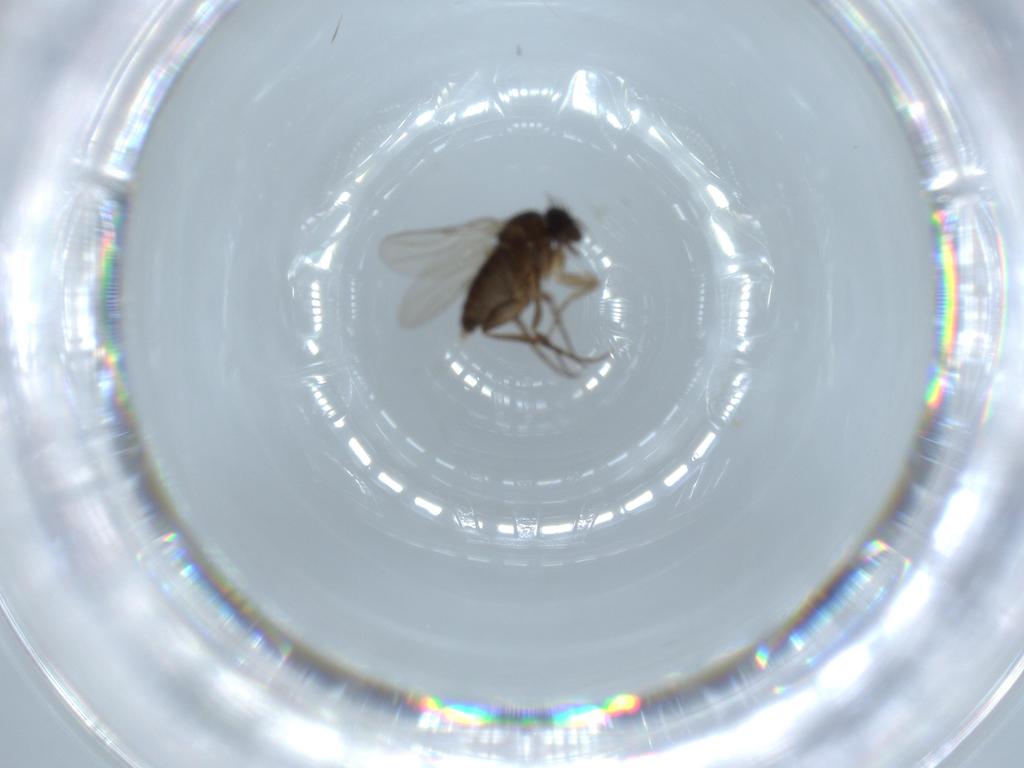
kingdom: Animalia
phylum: Arthropoda
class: Insecta
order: Diptera
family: Phoridae
